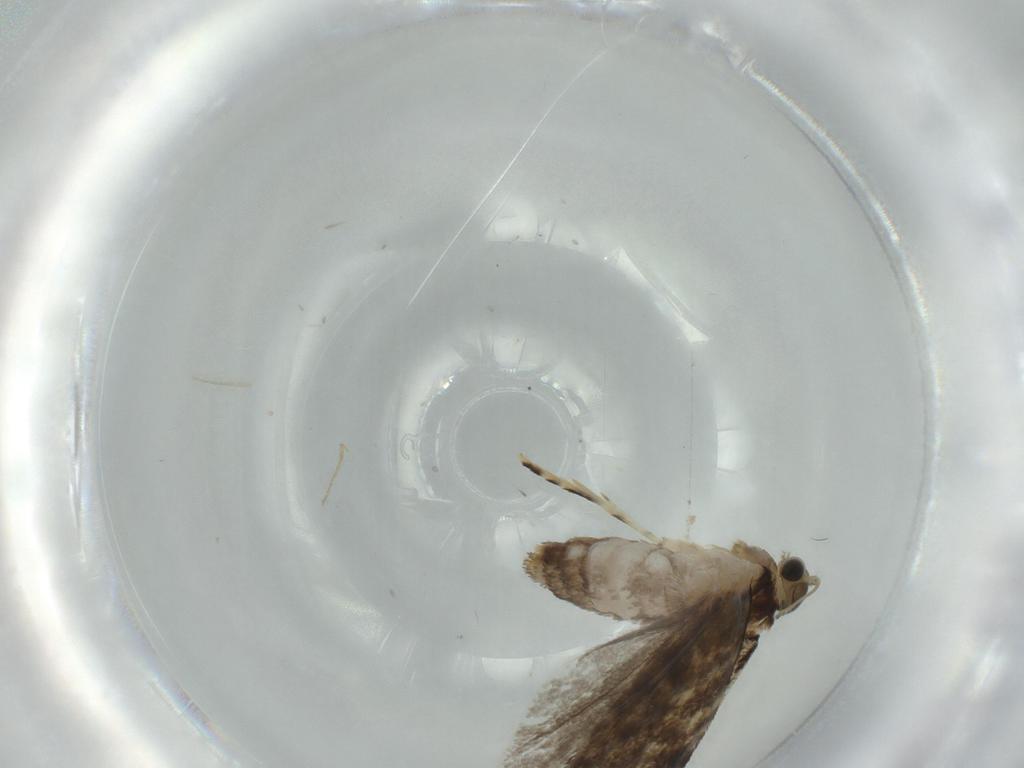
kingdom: Animalia
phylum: Arthropoda
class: Insecta
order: Lepidoptera
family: Tineidae
